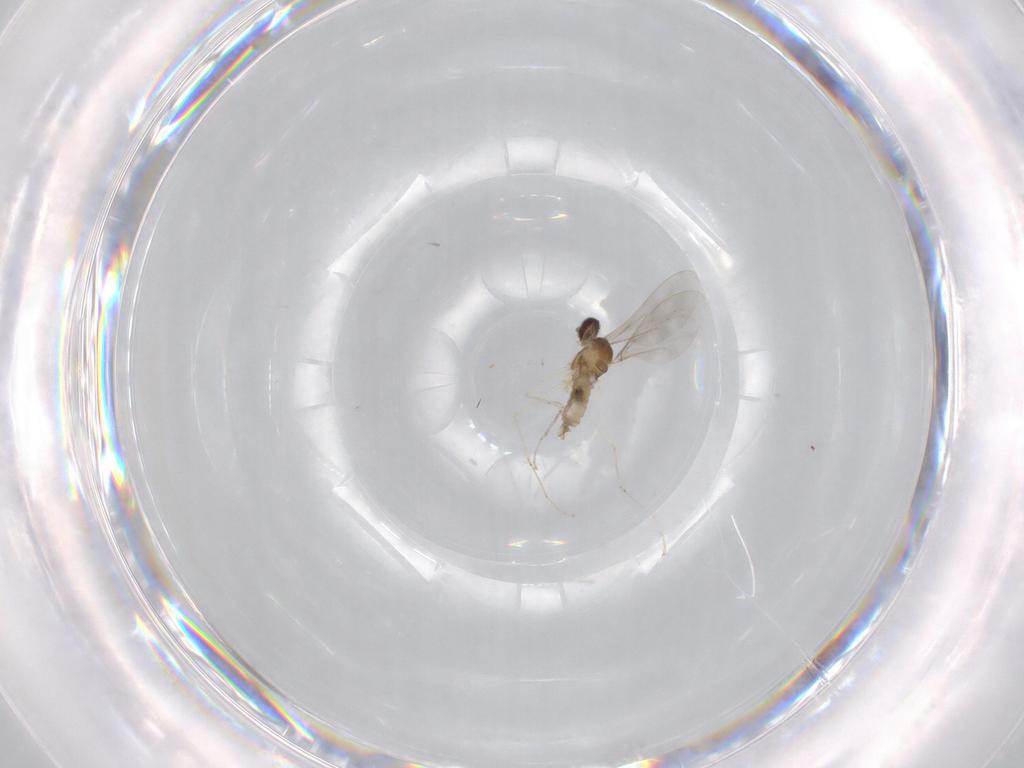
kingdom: Animalia
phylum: Arthropoda
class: Insecta
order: Diptera
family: Cecidomyiidae
